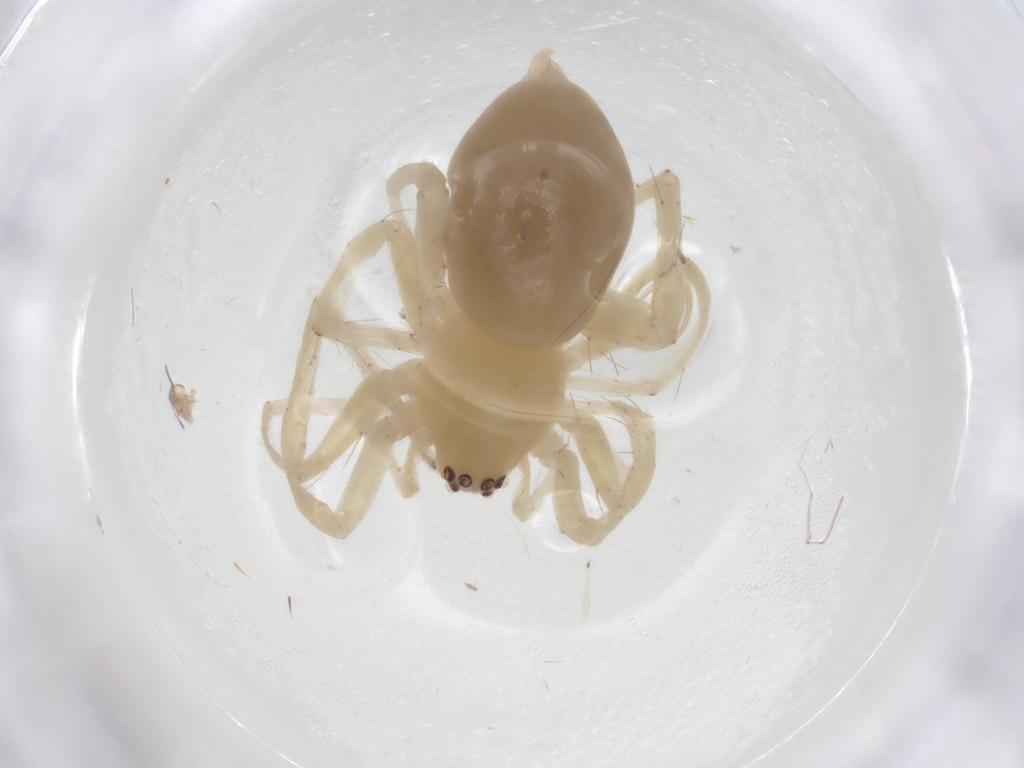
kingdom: Animalia
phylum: Arthropoda
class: Arachnida
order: Araneae
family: Anyphaenidae
